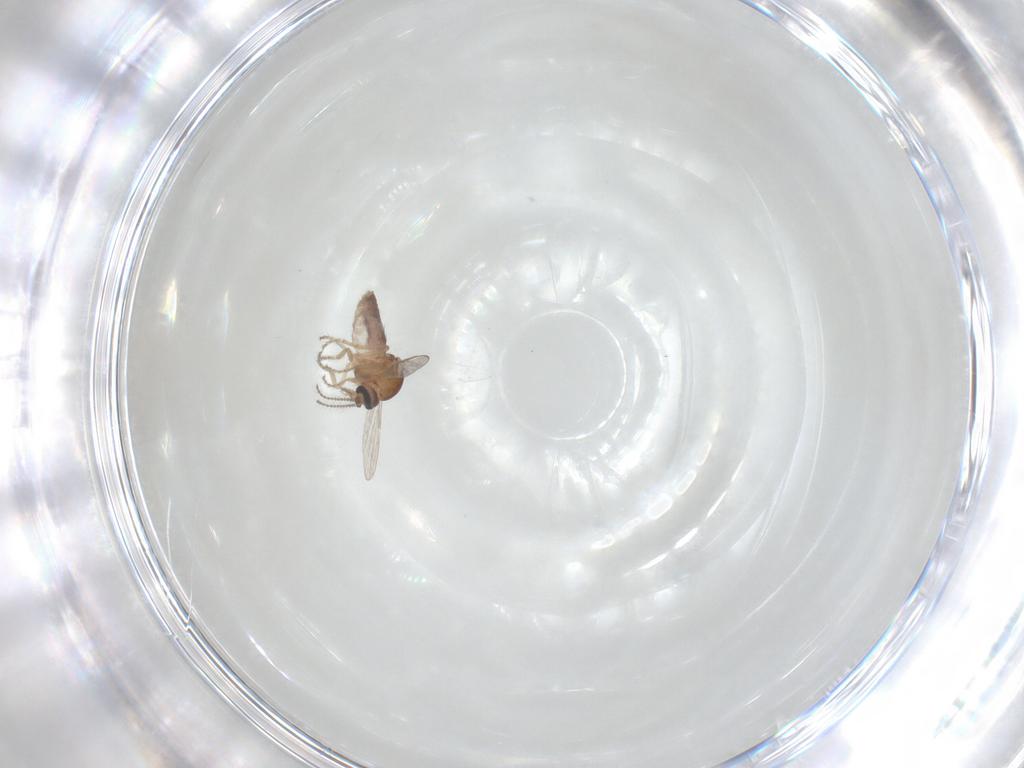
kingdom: Animalia
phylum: Arthropoda
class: Insecta
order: Diptera
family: Ceratopogonidae
